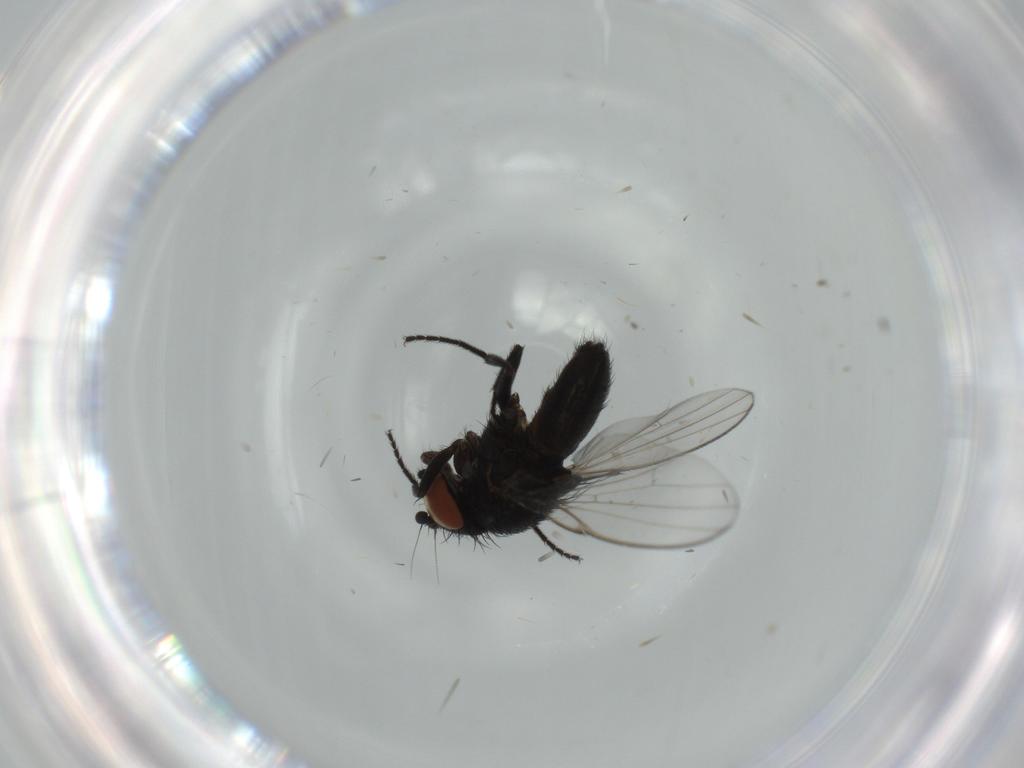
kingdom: Animalia
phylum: Arthropoda
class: Insecta
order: Diptera
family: Milichiidae
